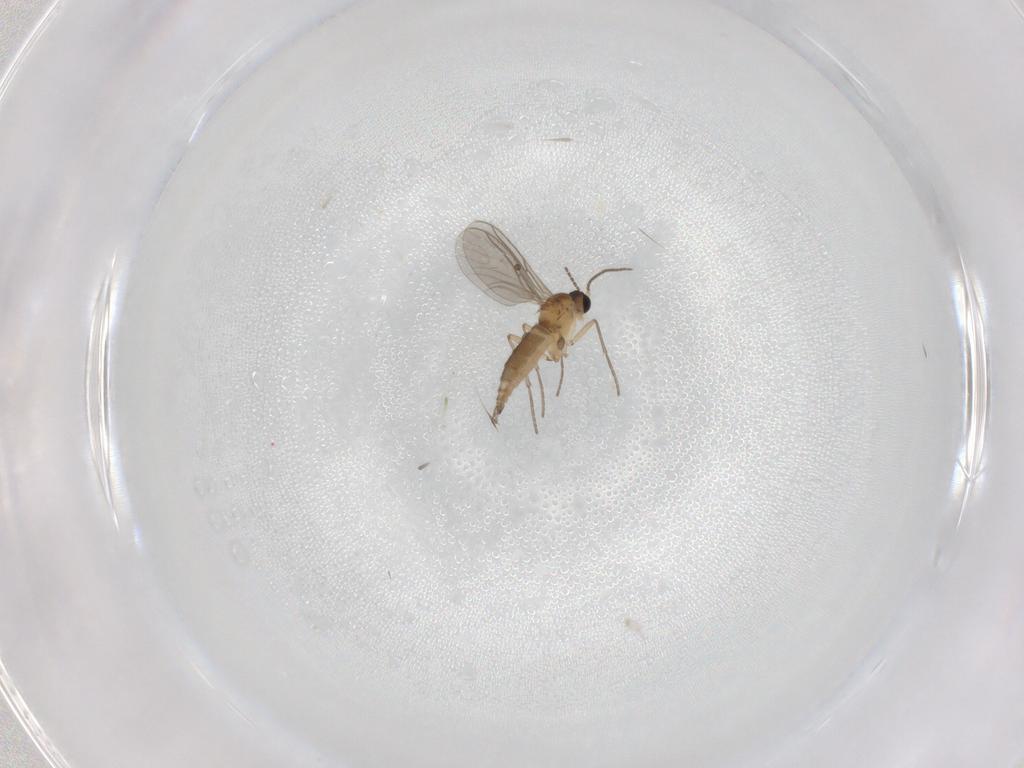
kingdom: Animalia
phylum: Arthropoda
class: Insecta
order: Diptera
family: Sciaridae
